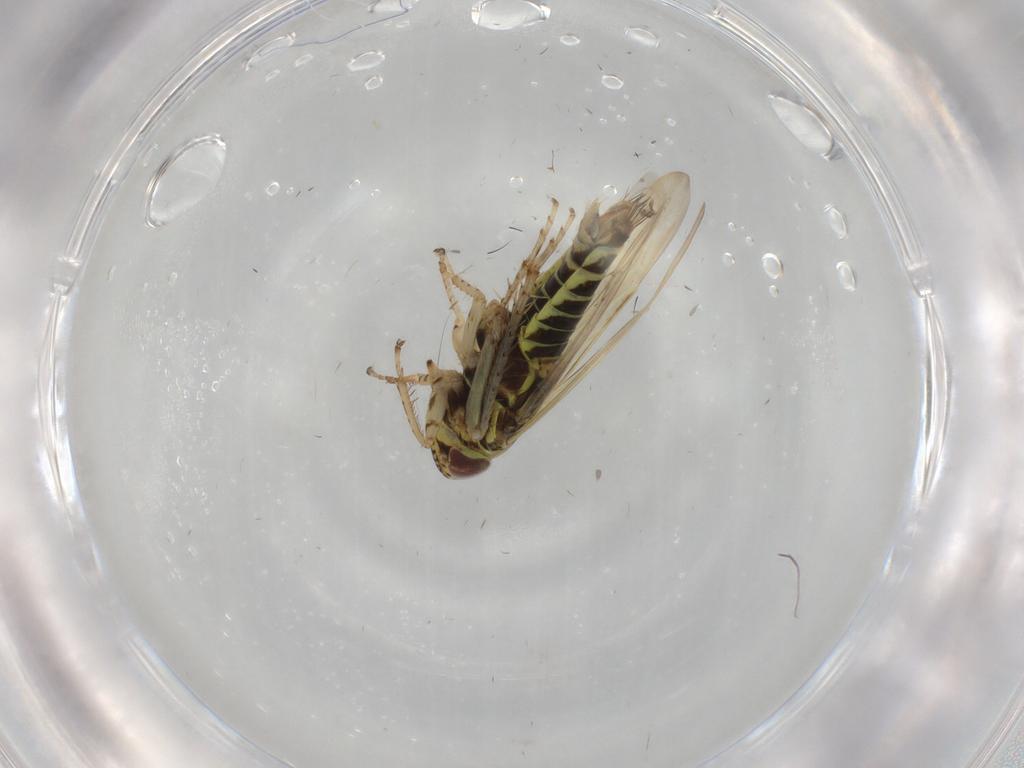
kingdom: Animalia
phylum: Arthropoda
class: Insecta
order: Hemiptera
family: Cicadellidae
